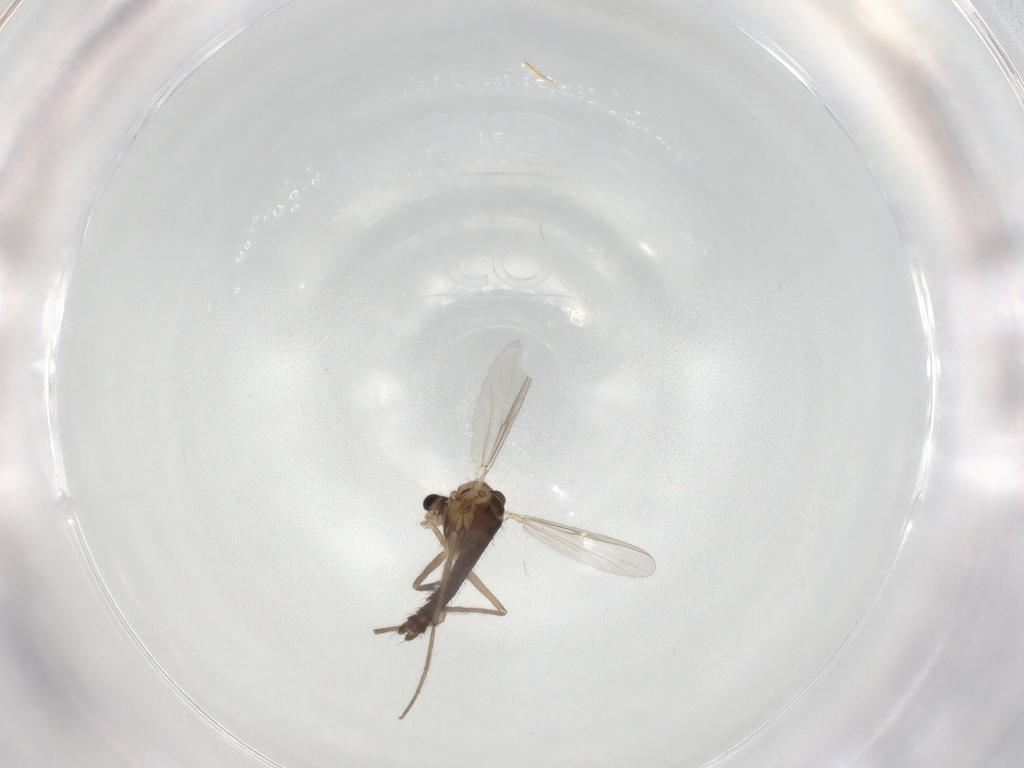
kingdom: Animalia
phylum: Arthropoda
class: Insecta
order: Diptera
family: Chironomidae
